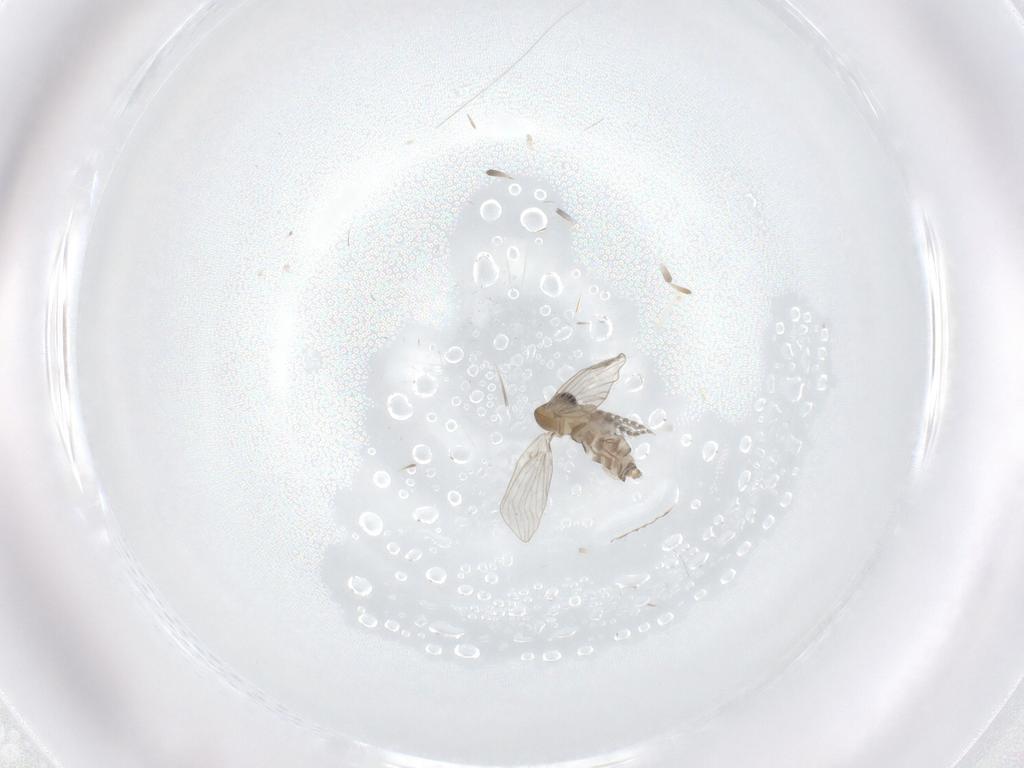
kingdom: Animalia
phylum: Arthropoda
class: Insecta
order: Diptera
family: Cecidomyiidae
